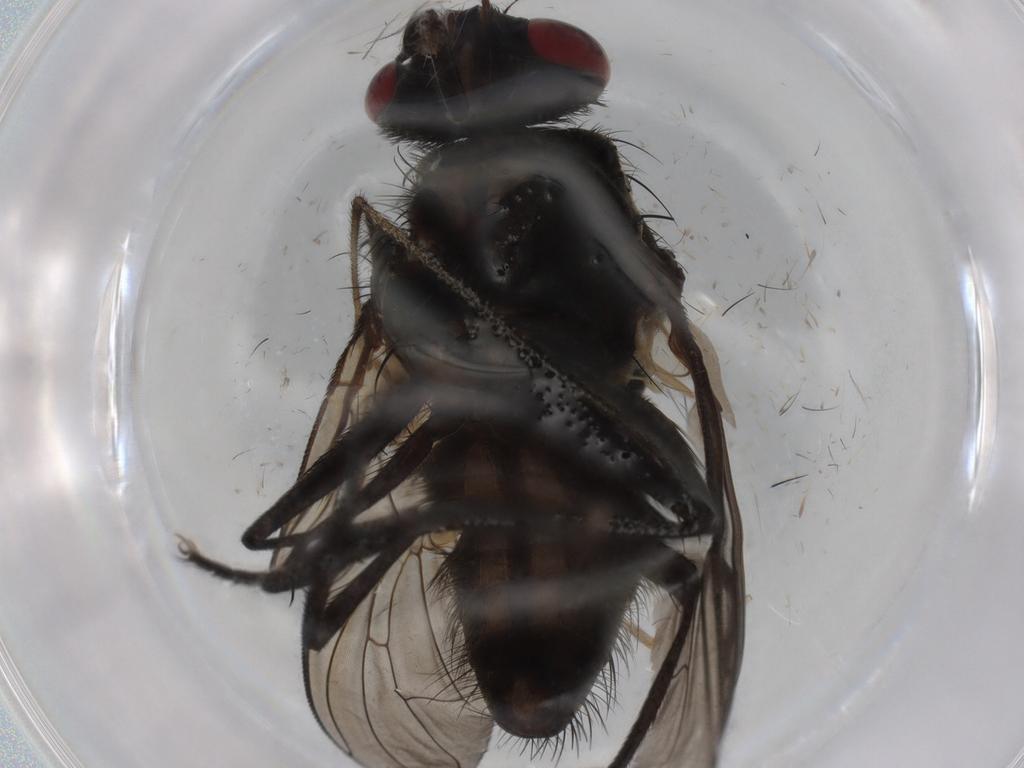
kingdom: Animalia
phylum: Arthropoda
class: Insecta
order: Diptera
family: Muscidae
